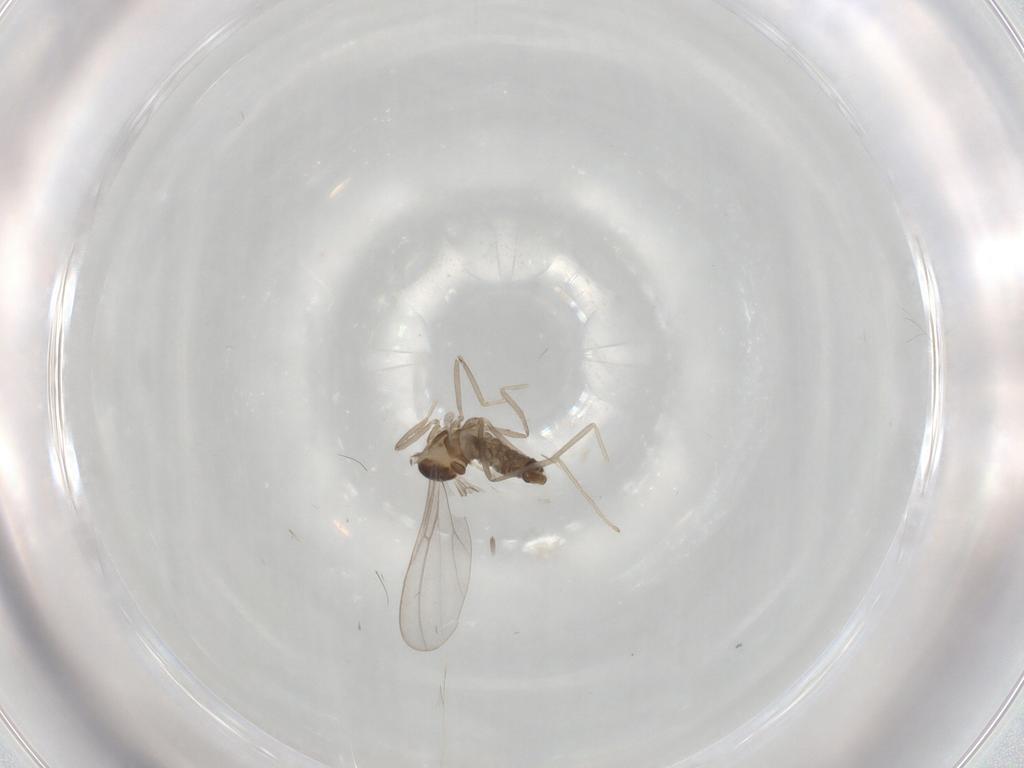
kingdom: Animalia
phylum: Arthropoda
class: Insecta
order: Diptera
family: Cecidomyiidae
